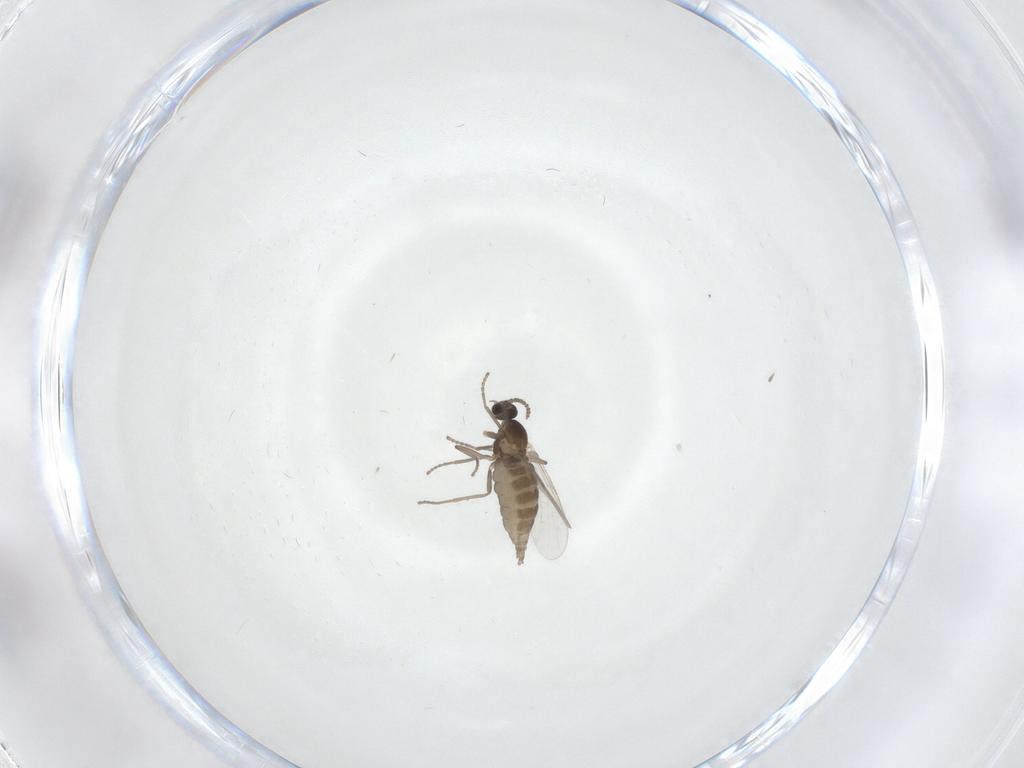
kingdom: Animalia
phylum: Arthropoda
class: Insecta
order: Diptera
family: Cecidomyiidae
